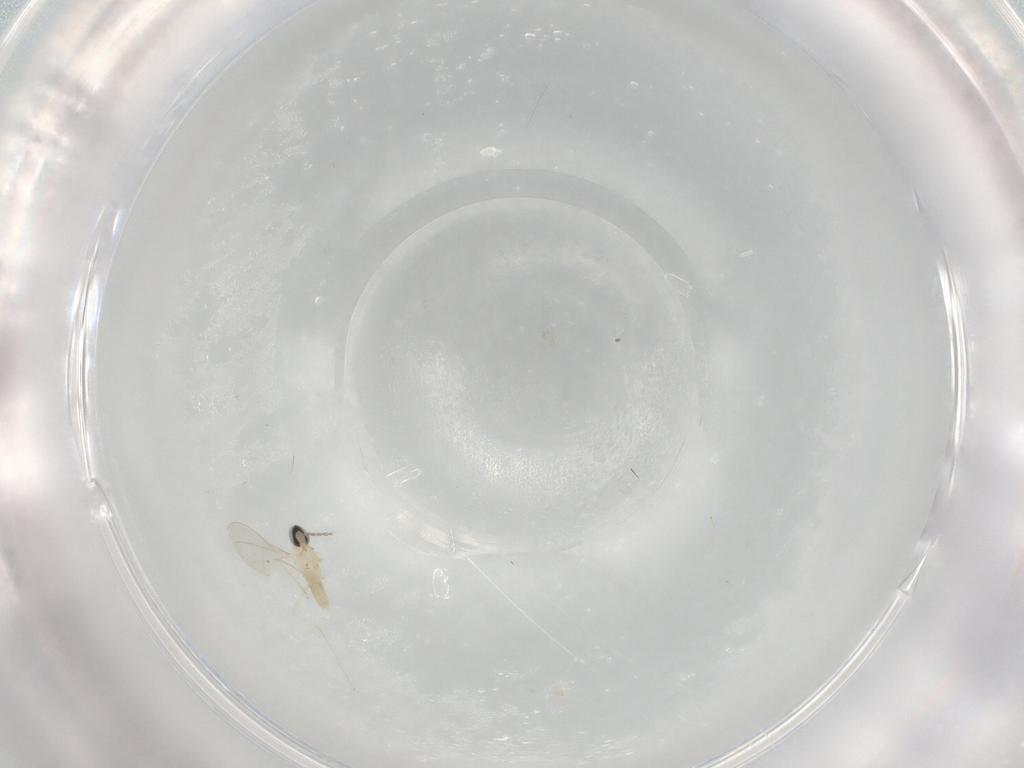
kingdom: Animalia
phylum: Arthropoda
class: Insecta
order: Diptera
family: Cecidomyiidae
